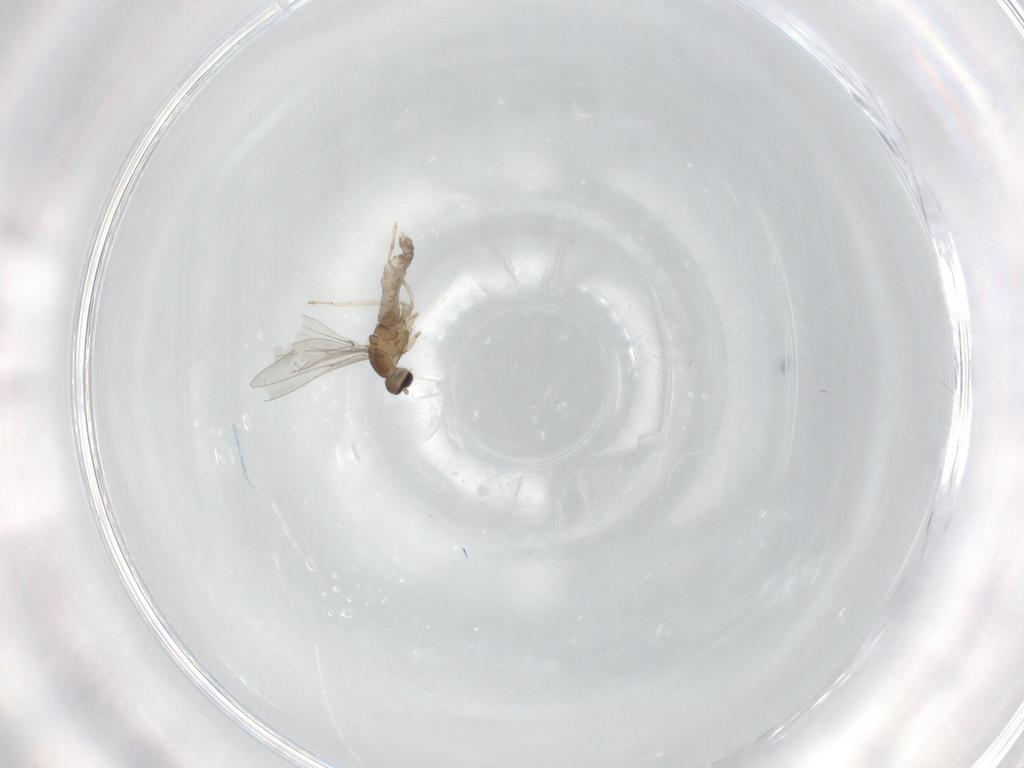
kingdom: Animalia
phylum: Arthropoda
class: Insecta
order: Diptera
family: Cecidomyiidae
